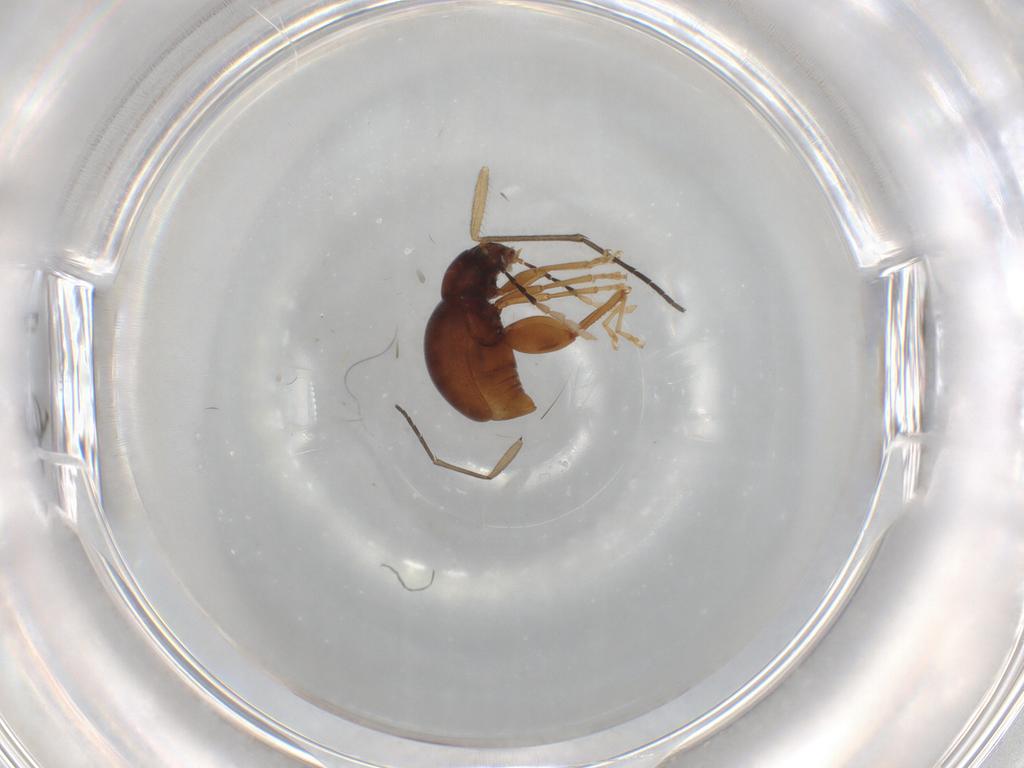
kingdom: Animalia
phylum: Arthropoda
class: Insecta
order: Coleoptera
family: Chrysomelidae
